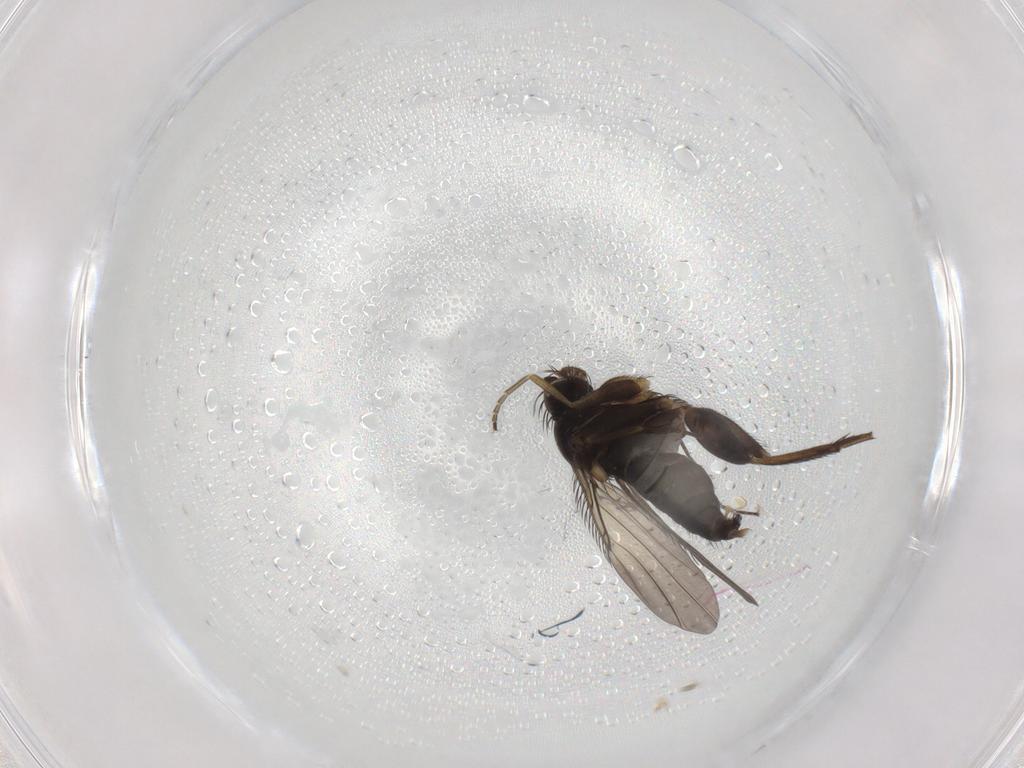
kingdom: Animalia
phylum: Arthropoda
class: Insecta
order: Diptera
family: Phoridae
